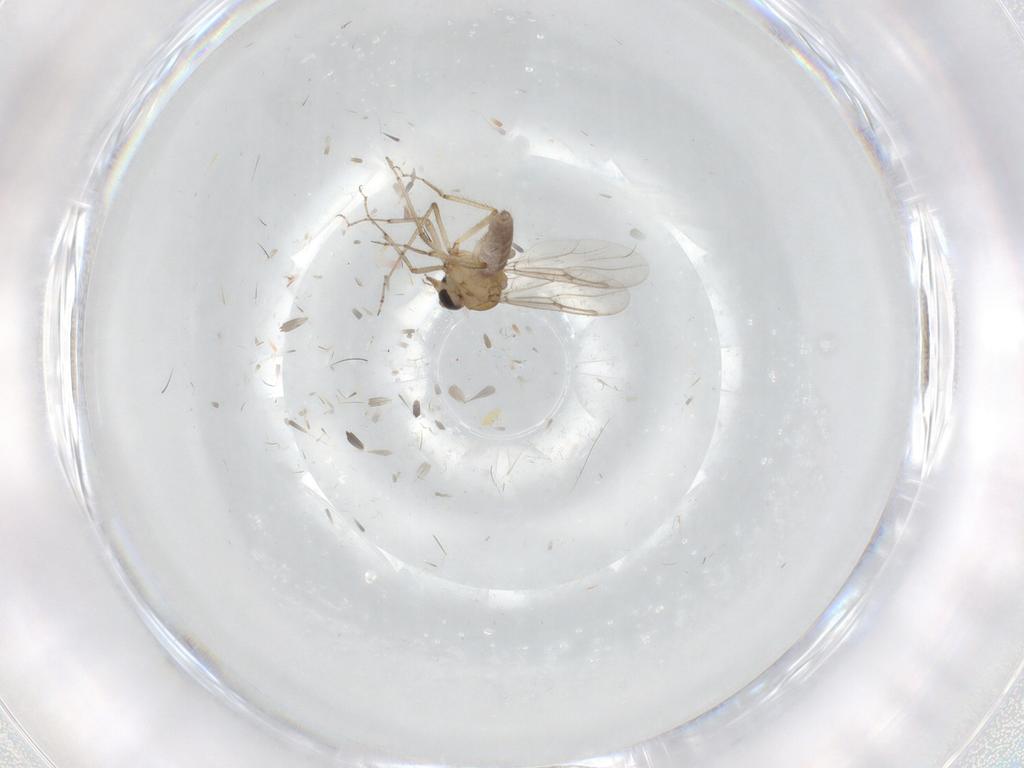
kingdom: Animalia
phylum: Arthropoda
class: Insecta
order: Diptera
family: Ceratopogonidae
